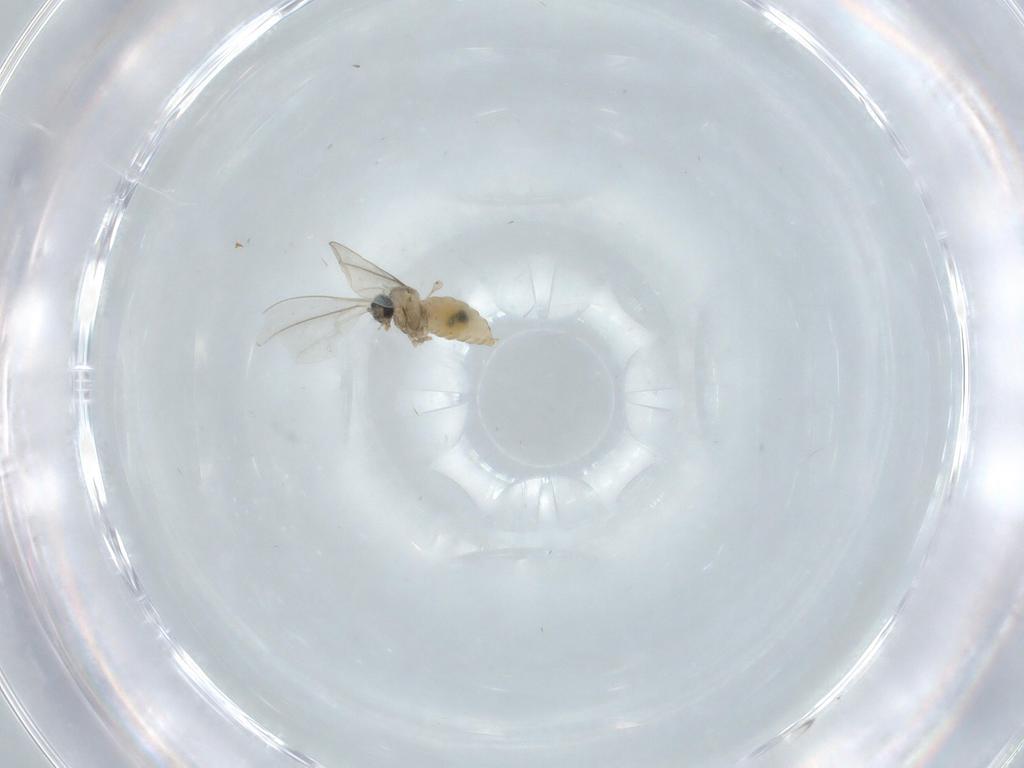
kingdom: Animalia
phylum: Arthropoda
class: Insecta
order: Diptera
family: Cecidomyiidae
